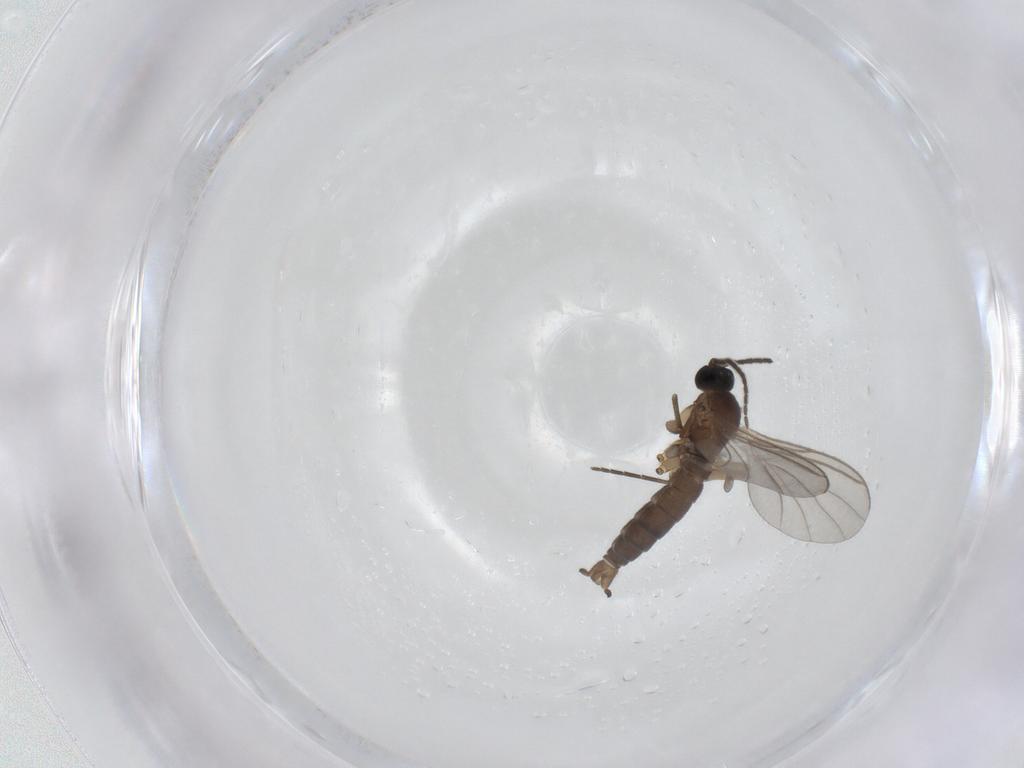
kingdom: Animalia
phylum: Arthropoda
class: Insecta
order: Diptera
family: Sciaridae
